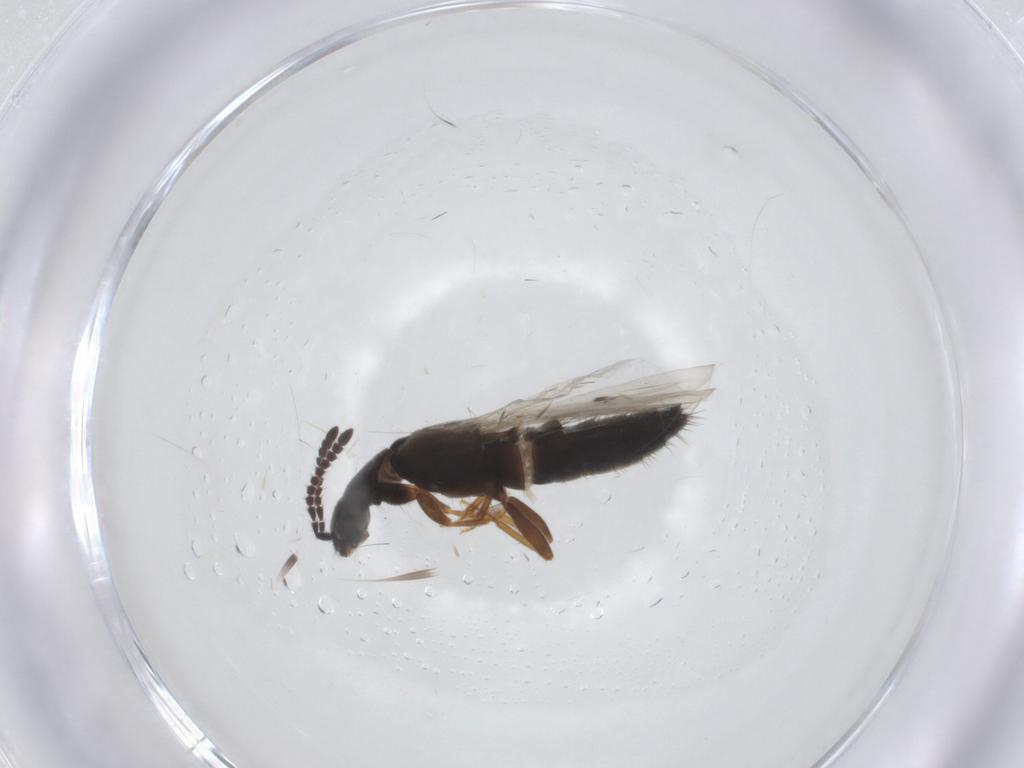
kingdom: Animalia
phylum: Arthropoda
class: Insecta
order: Coleoptera
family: Staphylinidae
